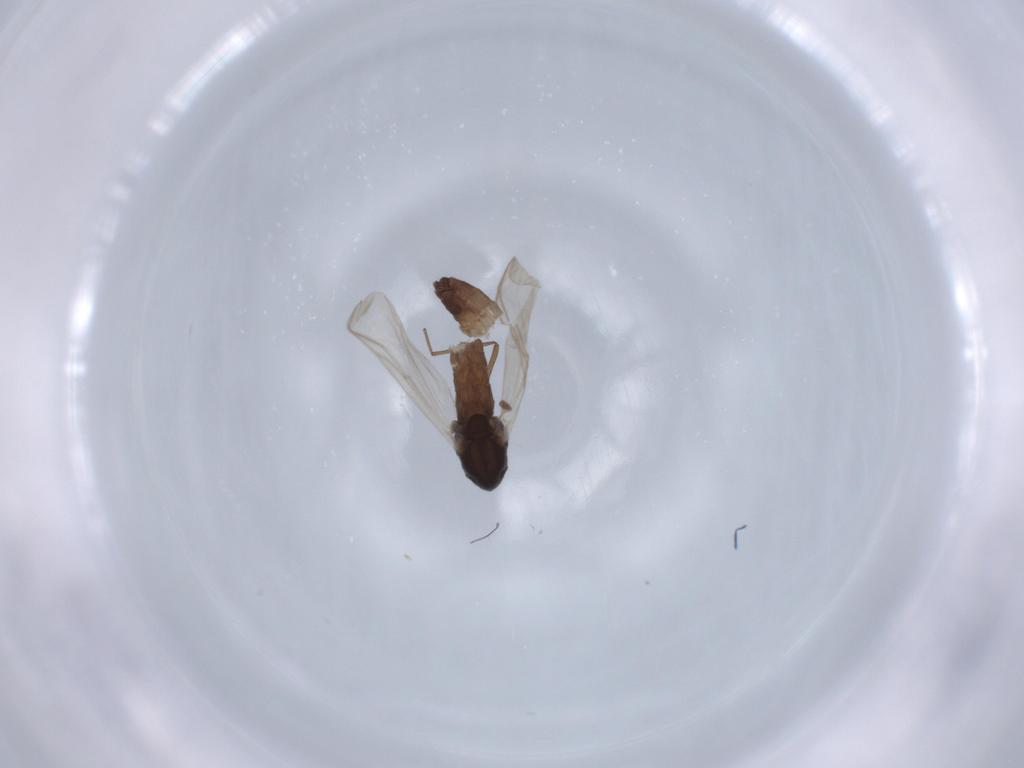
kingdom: Animalia
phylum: Arthropoda
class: Insecta
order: Diptera
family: Chironomidae
